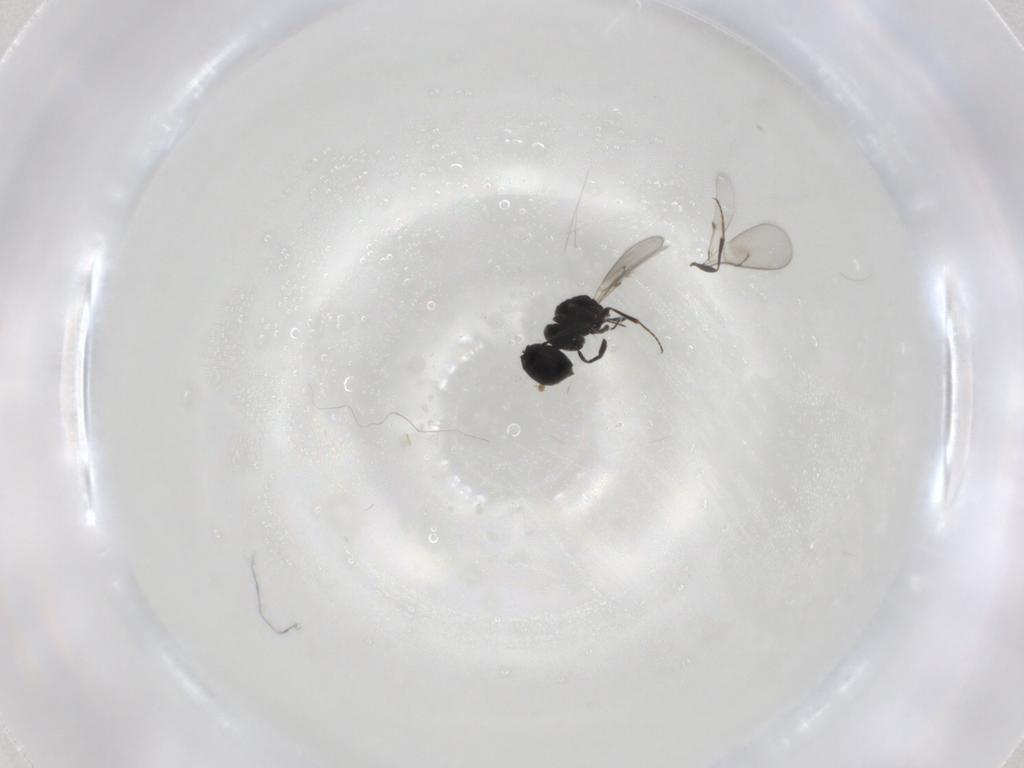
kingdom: Animalia
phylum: Arthropoda
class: Insecta
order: Hymenoptera
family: Scelionidae
